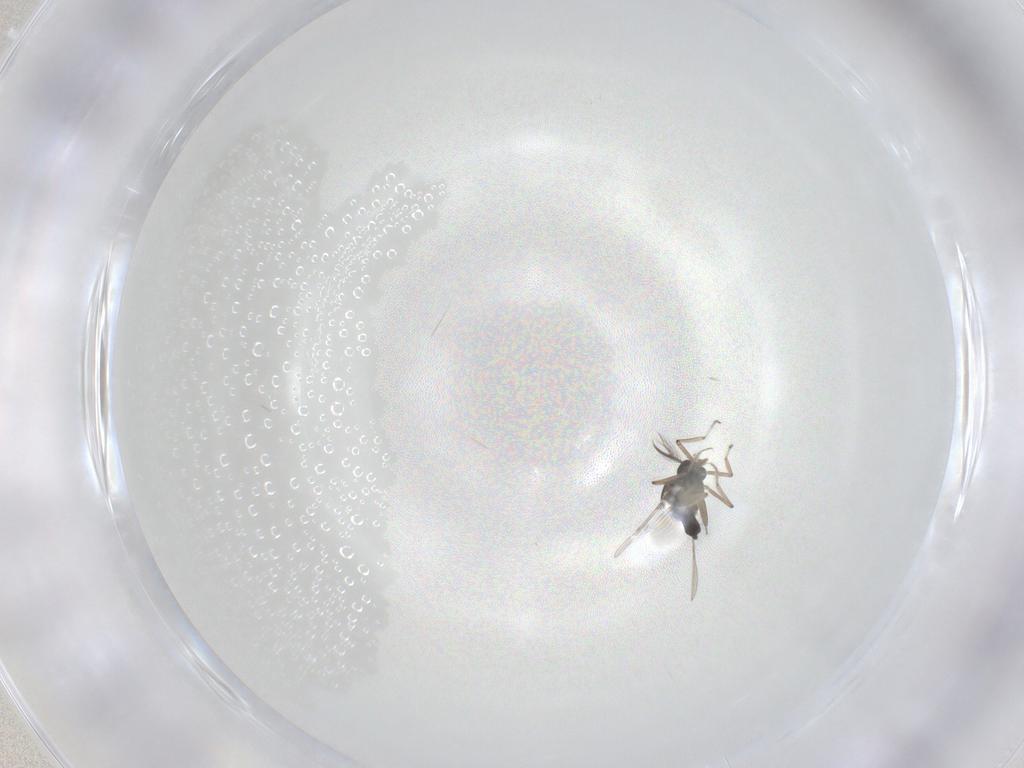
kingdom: Animalia
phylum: Arthropoda
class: Insecta
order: Diptera
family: Ceratopogonidae
